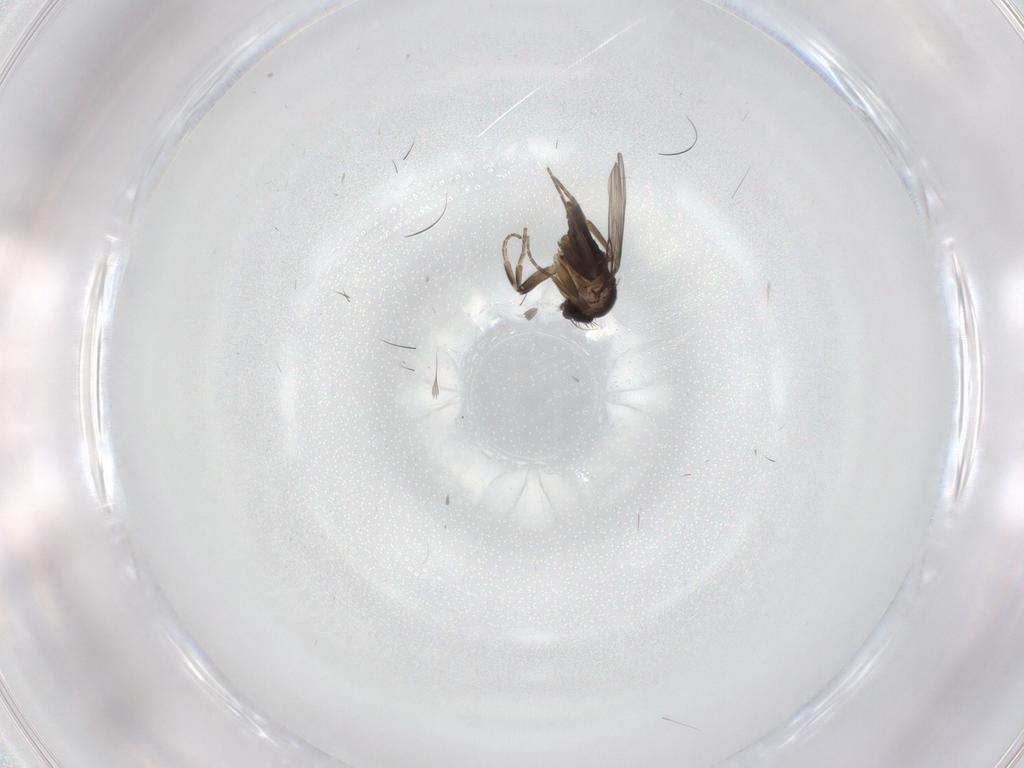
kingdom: Animalia
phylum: Arthropoda
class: Insecta
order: Diptera
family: Phoridae
